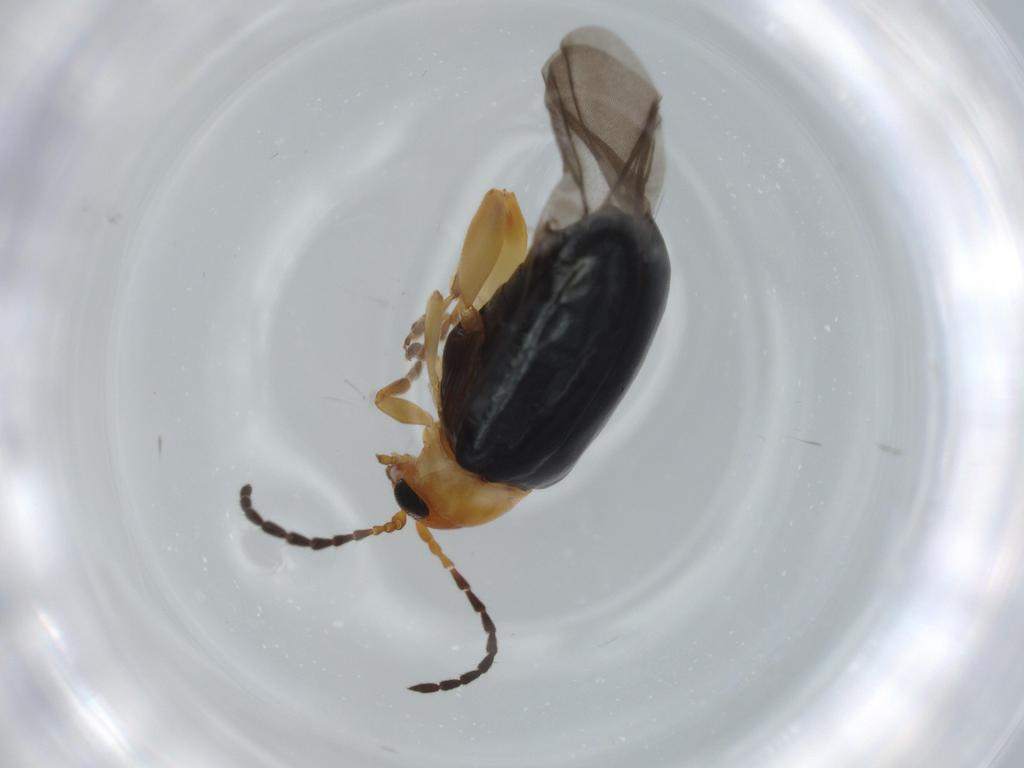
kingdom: Animalia
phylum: Arthropoda
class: Insecta
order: Coleoptera
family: Chrysomelidae
